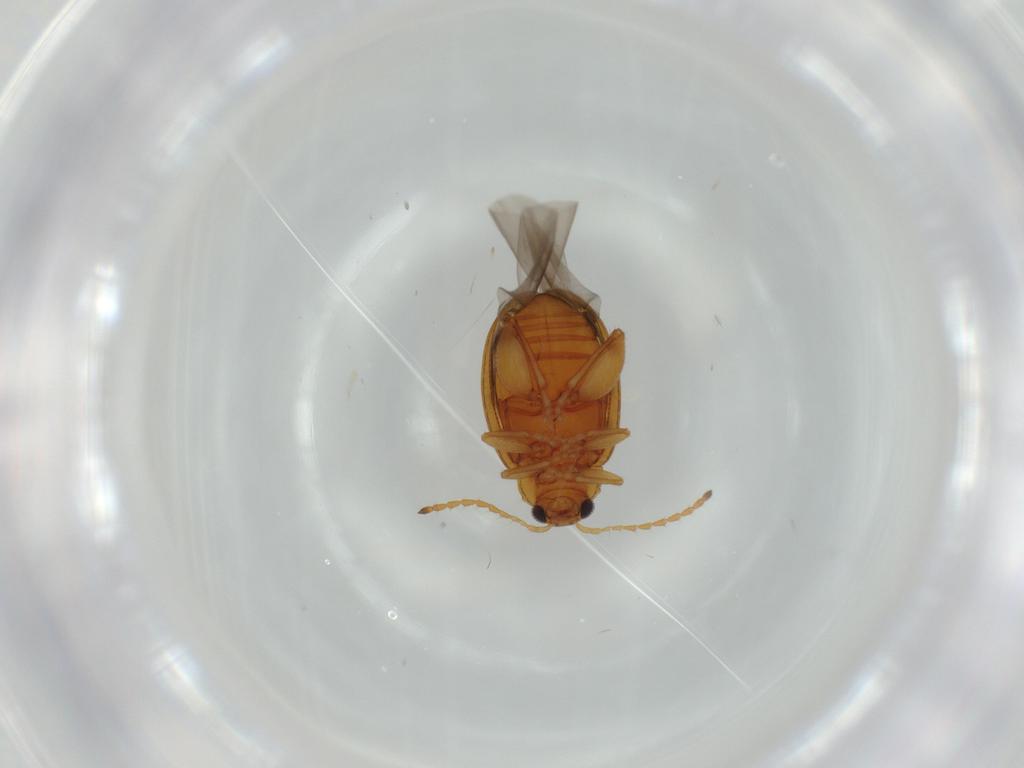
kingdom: Animalia
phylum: Arthropoda
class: Insecta
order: Coleoptera
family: Chrysomelidae
